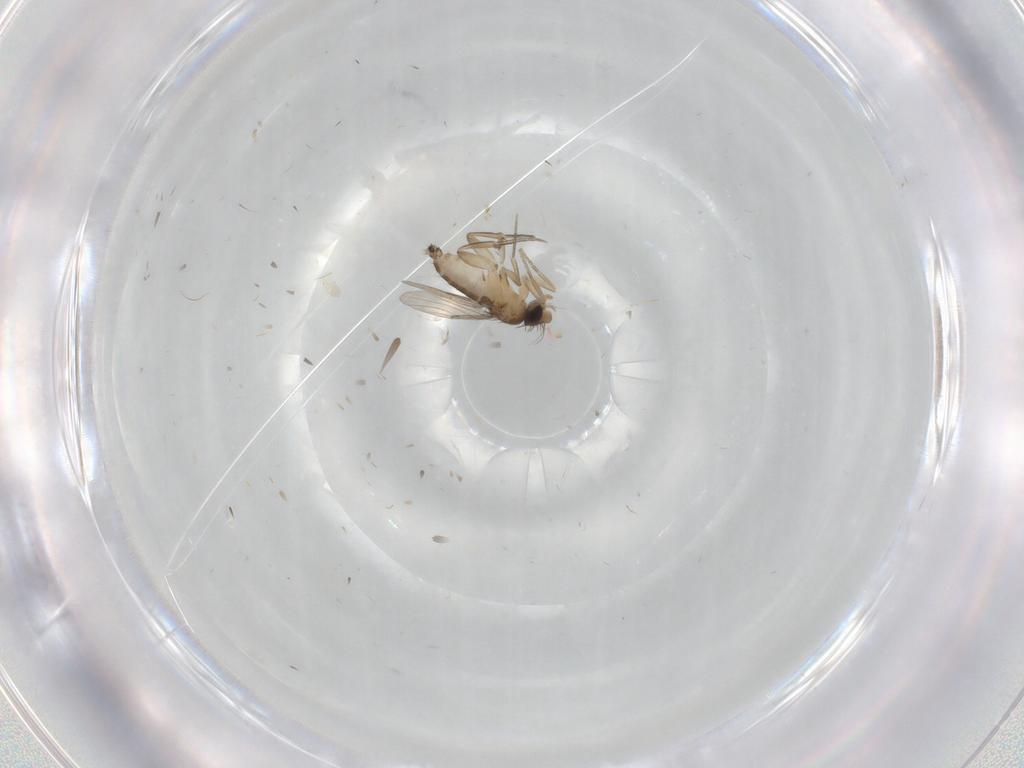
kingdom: Animalia
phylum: Arthropoda
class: Insecta
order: Diptera
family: Phoridae
